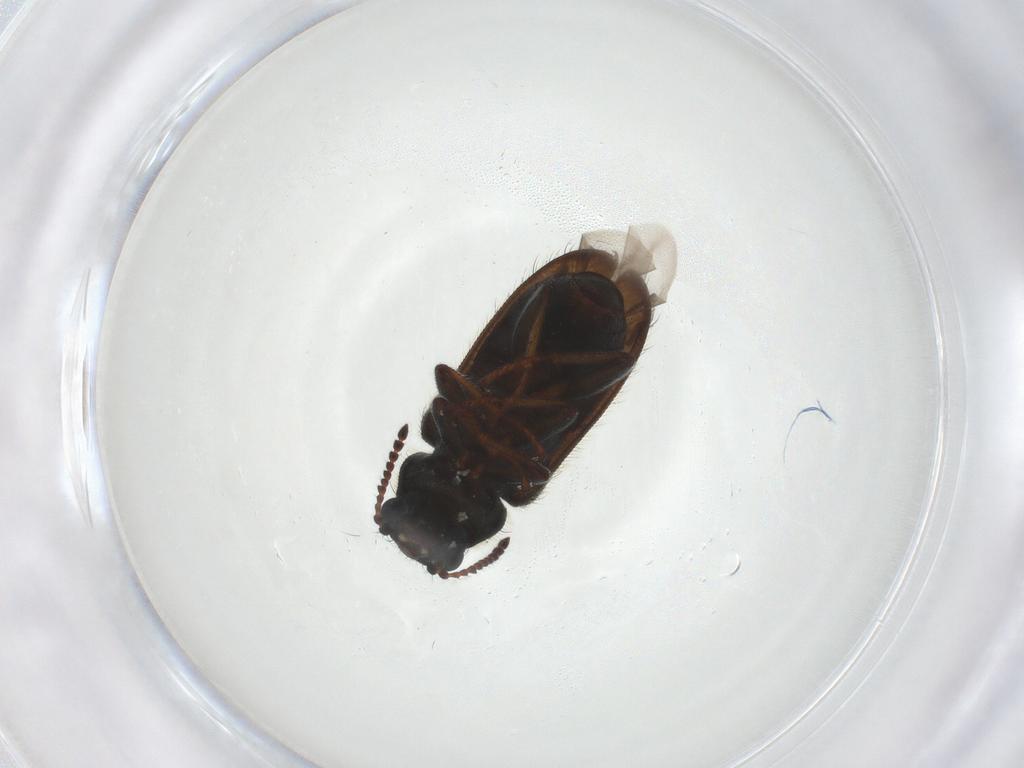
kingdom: Animalia
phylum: Arthropoda
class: Insecta
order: Coleoptera
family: Melyridae
